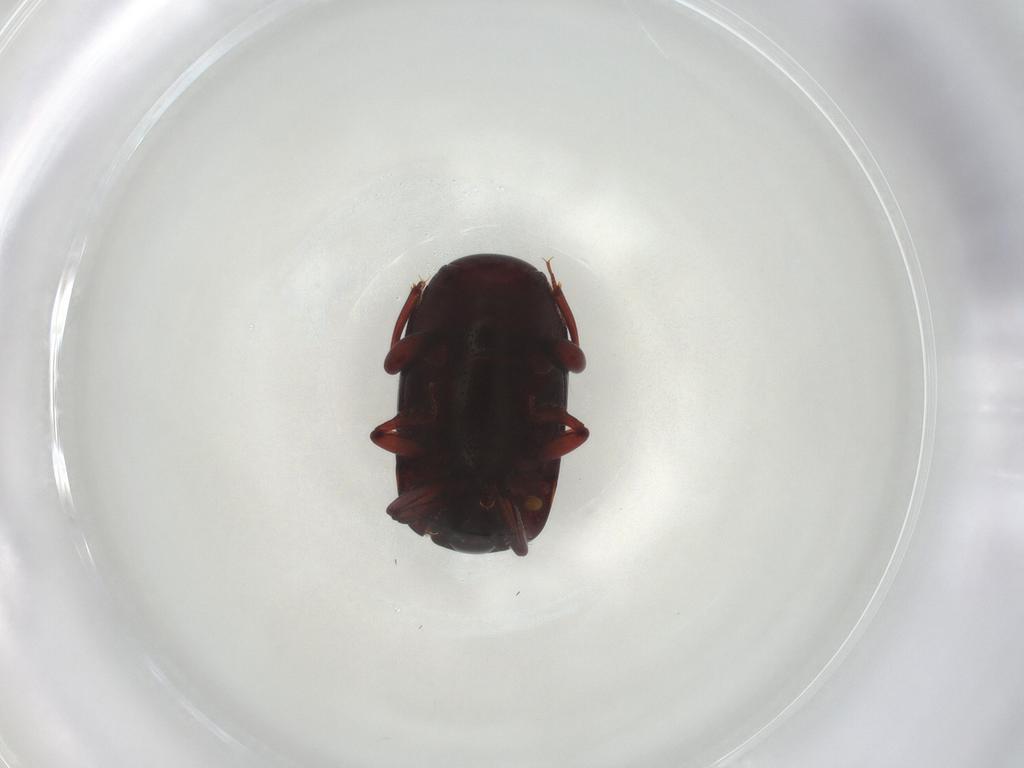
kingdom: Animalia
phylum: Arthropoda
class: Insecta
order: Coleoptera
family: Histeridae
